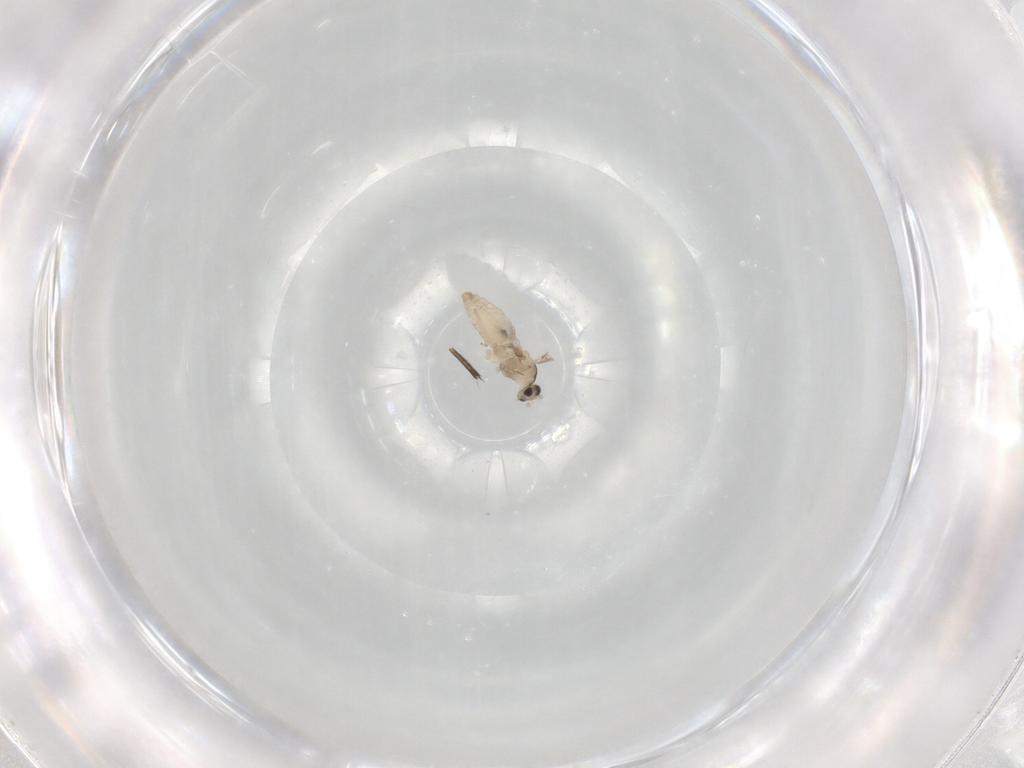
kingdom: Animalia
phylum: Arthropoda
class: Insecta
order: Diptera
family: Cecidomyiidae
